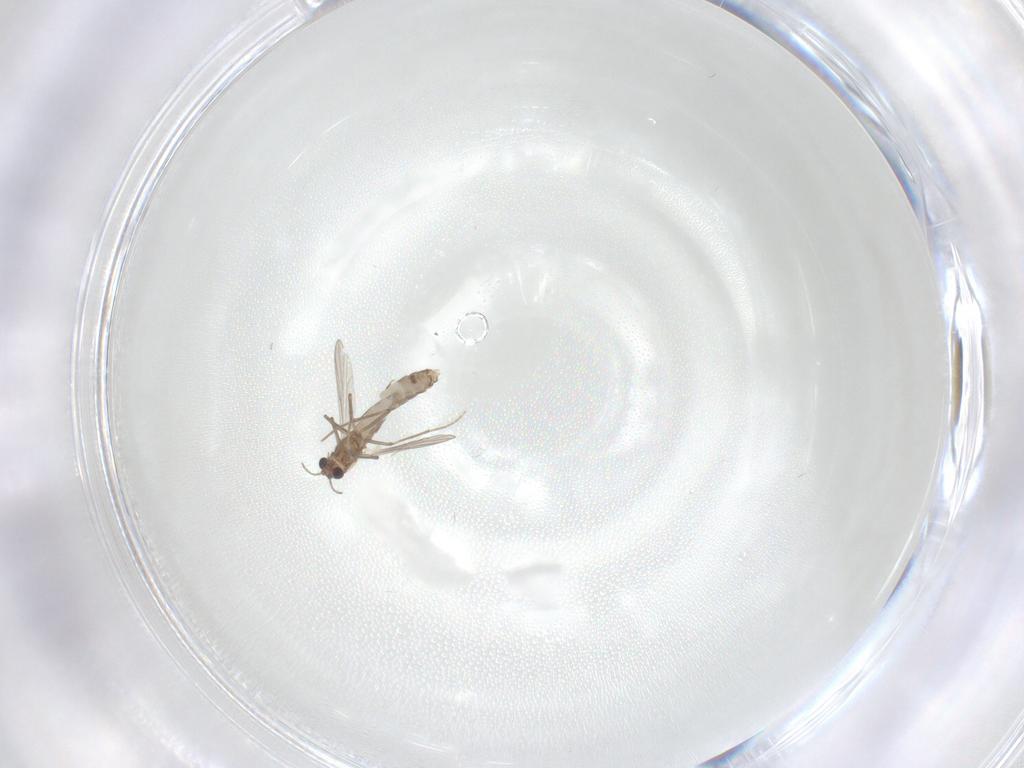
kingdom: Animalia
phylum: Arthropoda
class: Insecta
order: Diptera
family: Chironomidae
